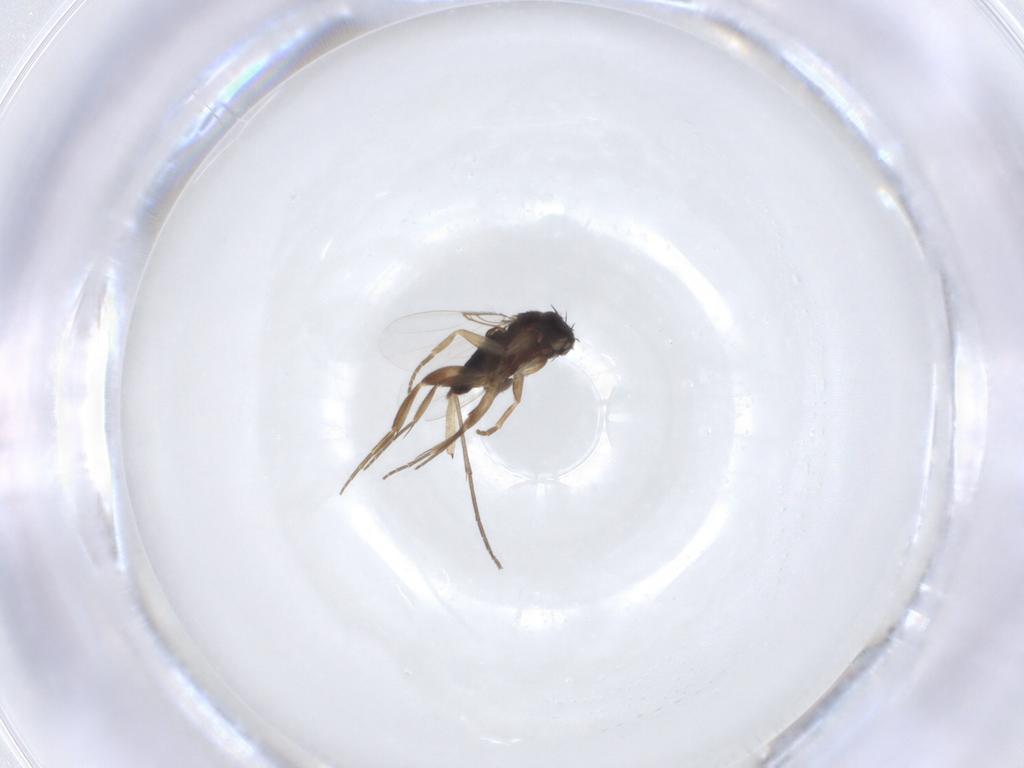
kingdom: Animalia
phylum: Arthropoda
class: Insecta
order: Diptera
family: Phoridae
